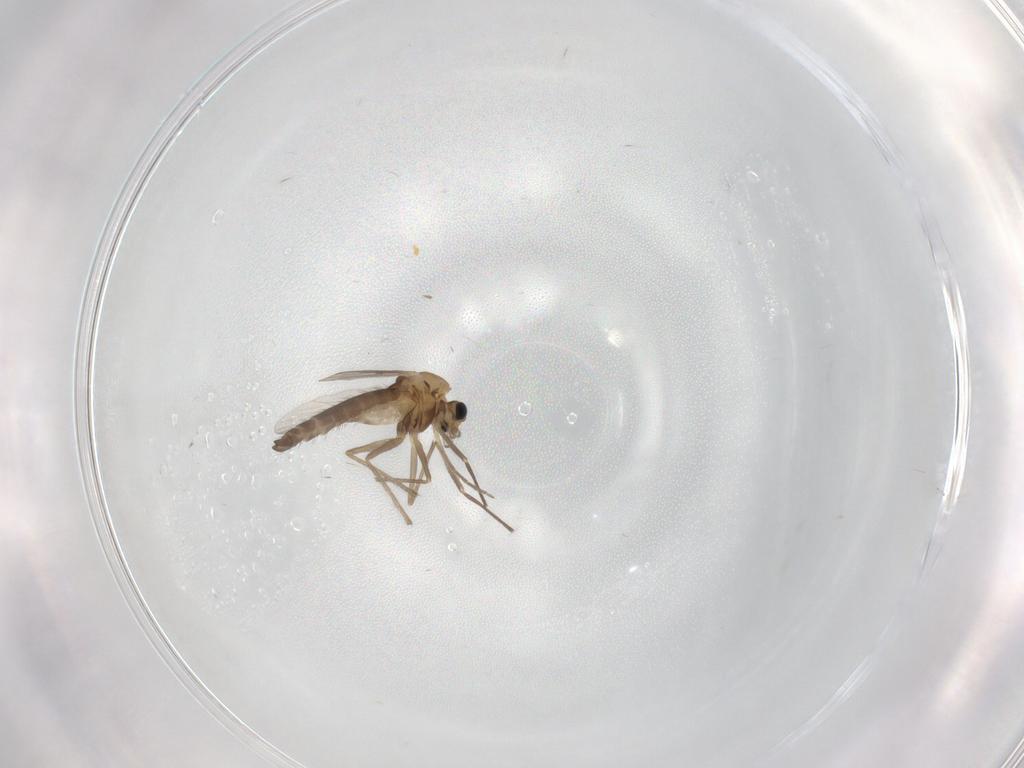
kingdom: Animalia
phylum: Arthropoda
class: Insecta
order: Diptera
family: Chironomidae
